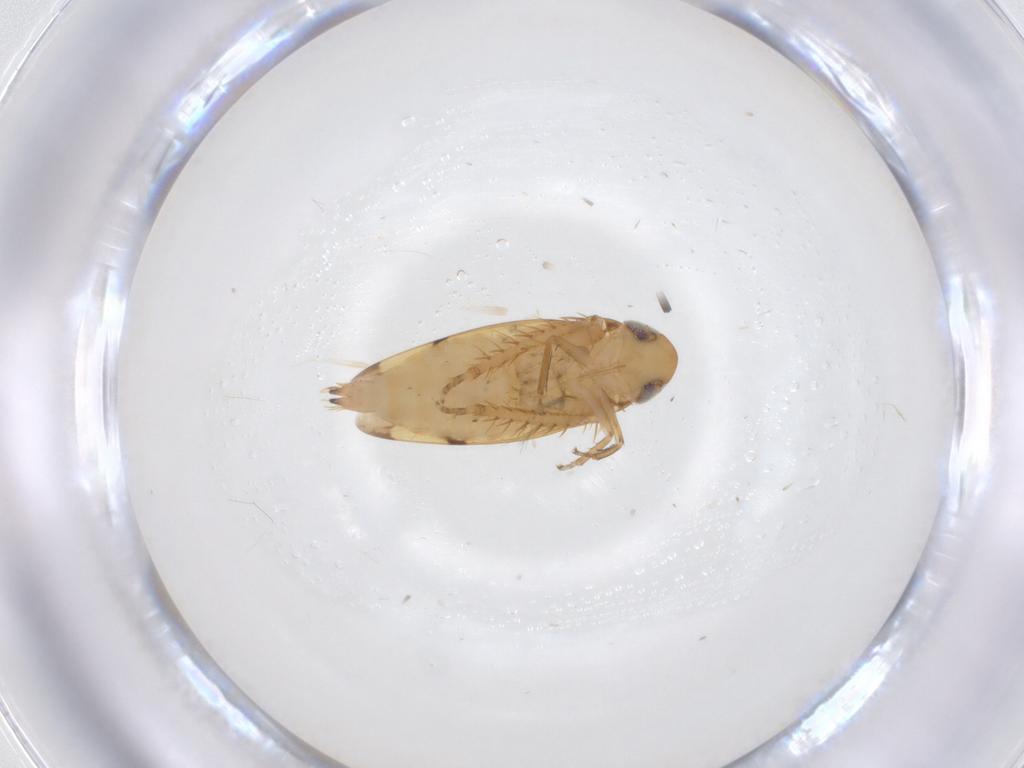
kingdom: Animalia
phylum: Arthropoda
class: Insecta
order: Hemiptera
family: Cicadellidae
